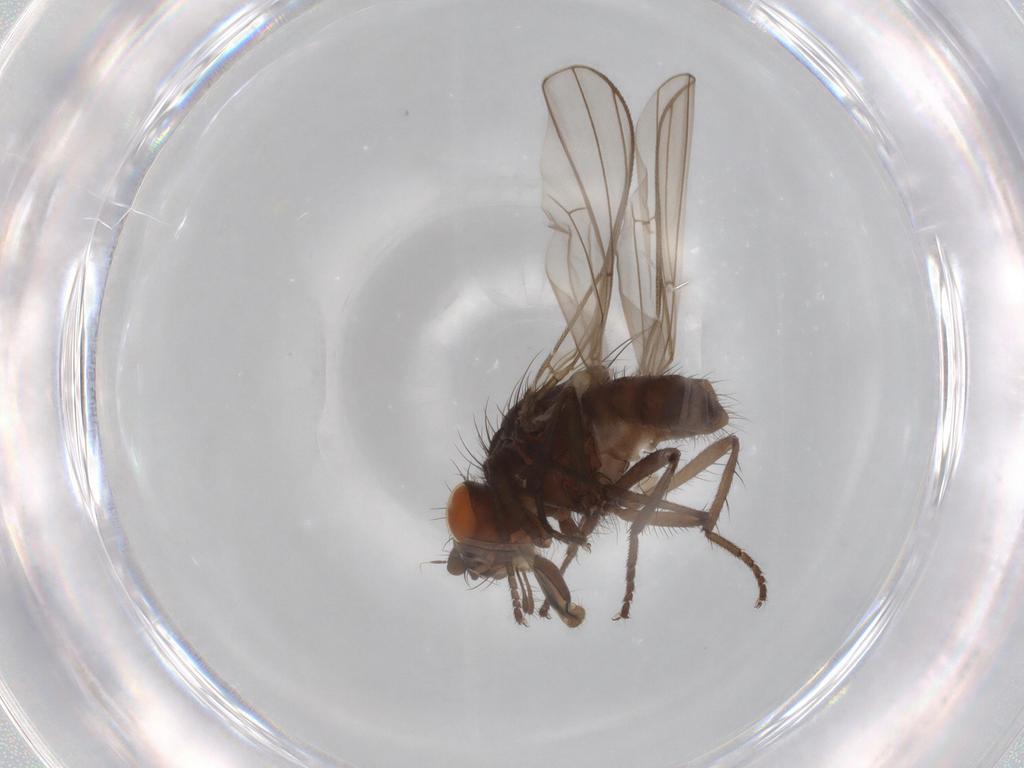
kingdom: Animalia
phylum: Arthropoda
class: Insecta
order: Diptera
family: Anthomyiidae
